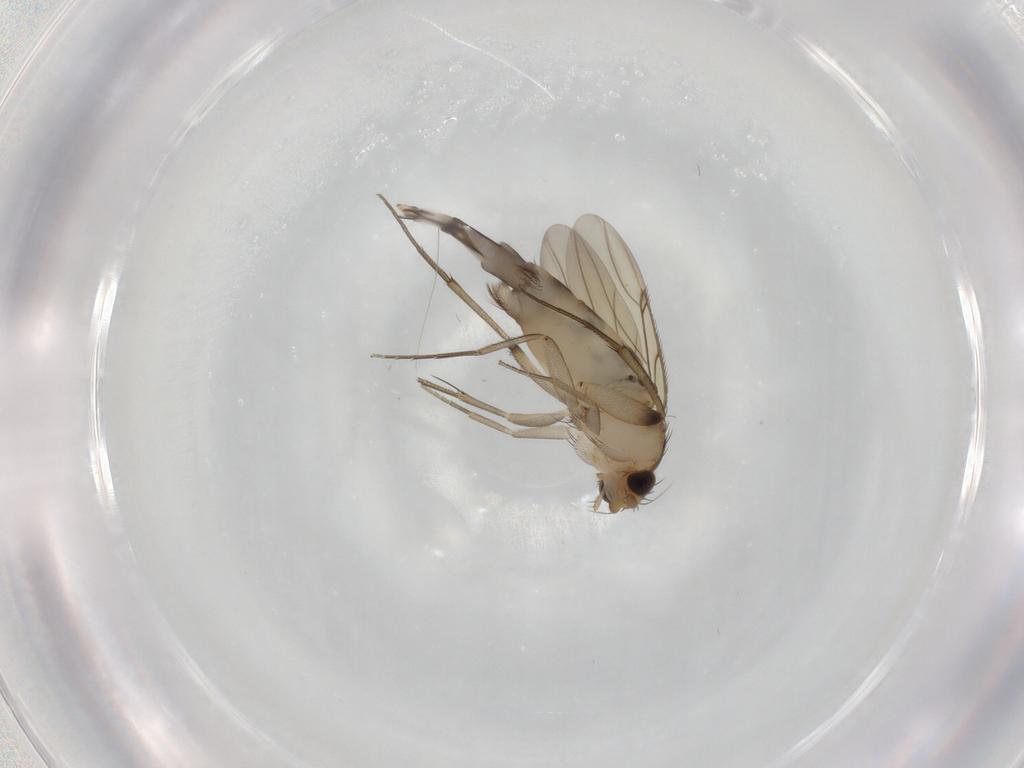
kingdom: Animalia
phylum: Arthropoda
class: Insecta
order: Diptera
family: Phoridae
